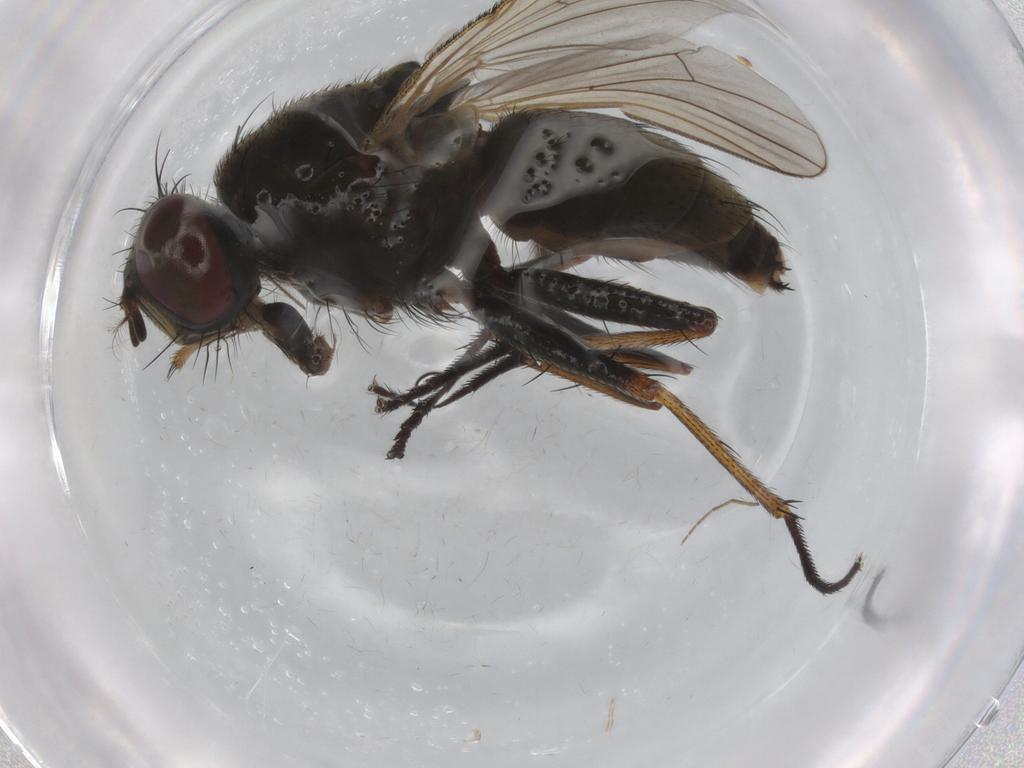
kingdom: Animalia
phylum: Arthropoda
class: Insecta
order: Diptera
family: Muscidae
